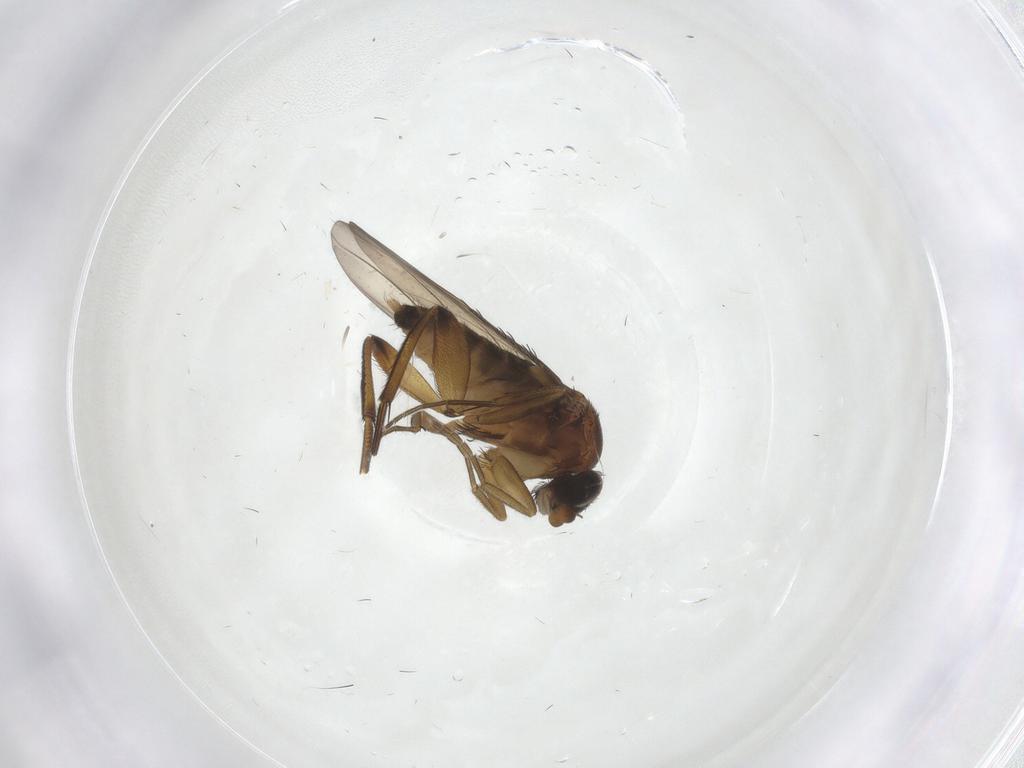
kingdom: Animalia
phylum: Arthropoda
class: Insecta
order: Diptera
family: Phoridae
